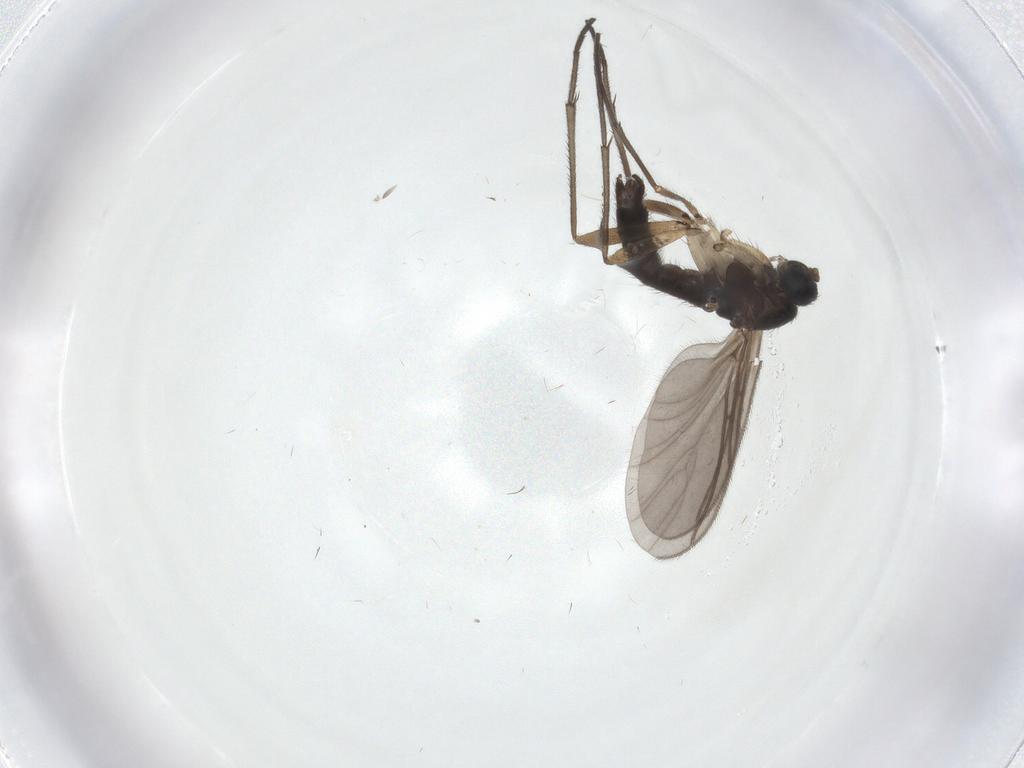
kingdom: Animalia
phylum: Arthropoda
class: Insecta
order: Diptera
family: Sciaridae
